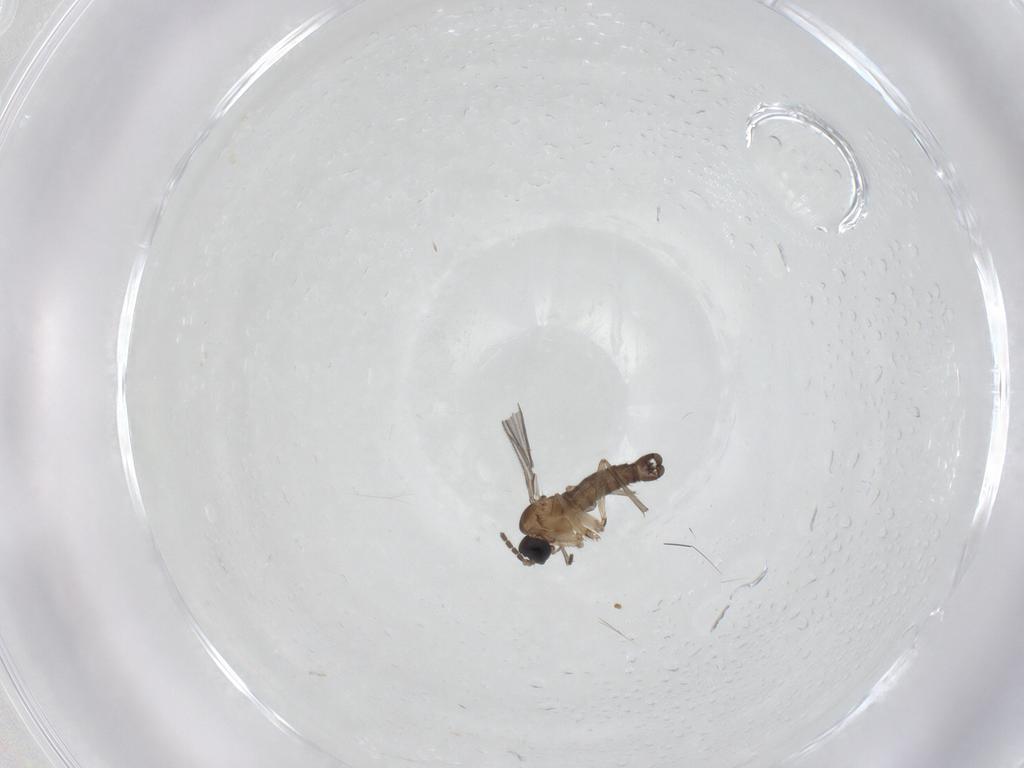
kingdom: Animalia
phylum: Arthropoda
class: Insecta
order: Diptera
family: Sciaridae
